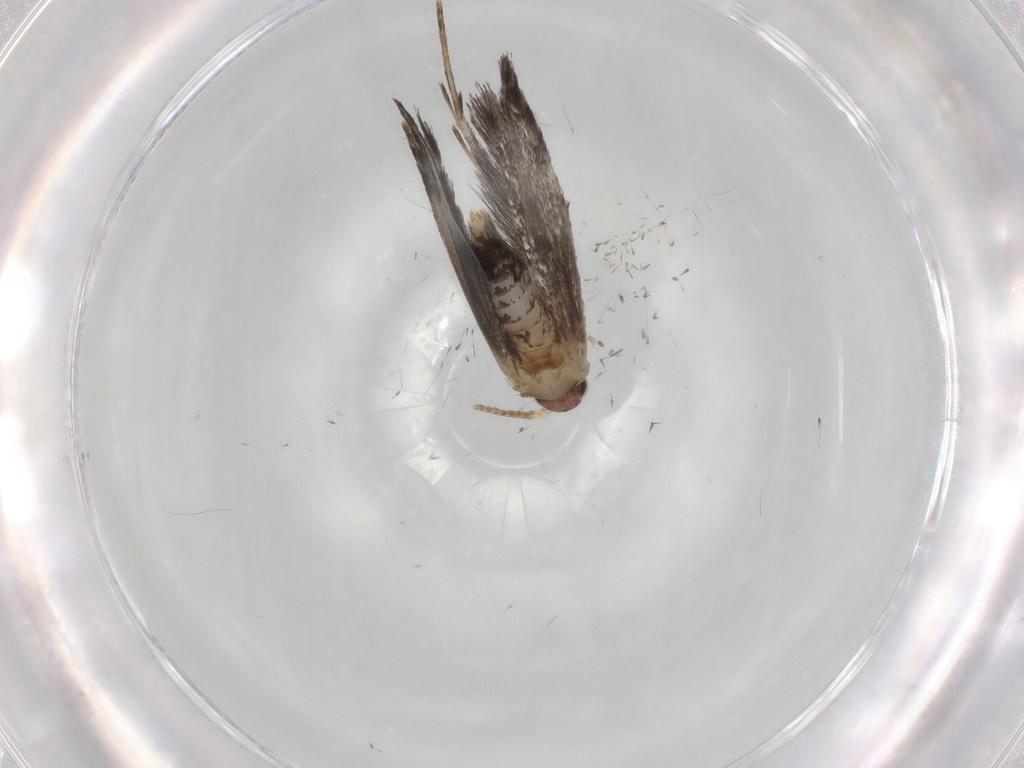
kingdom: Animalia
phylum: Arthropoda
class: Insecta
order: Lepidoptera
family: Tineidae
